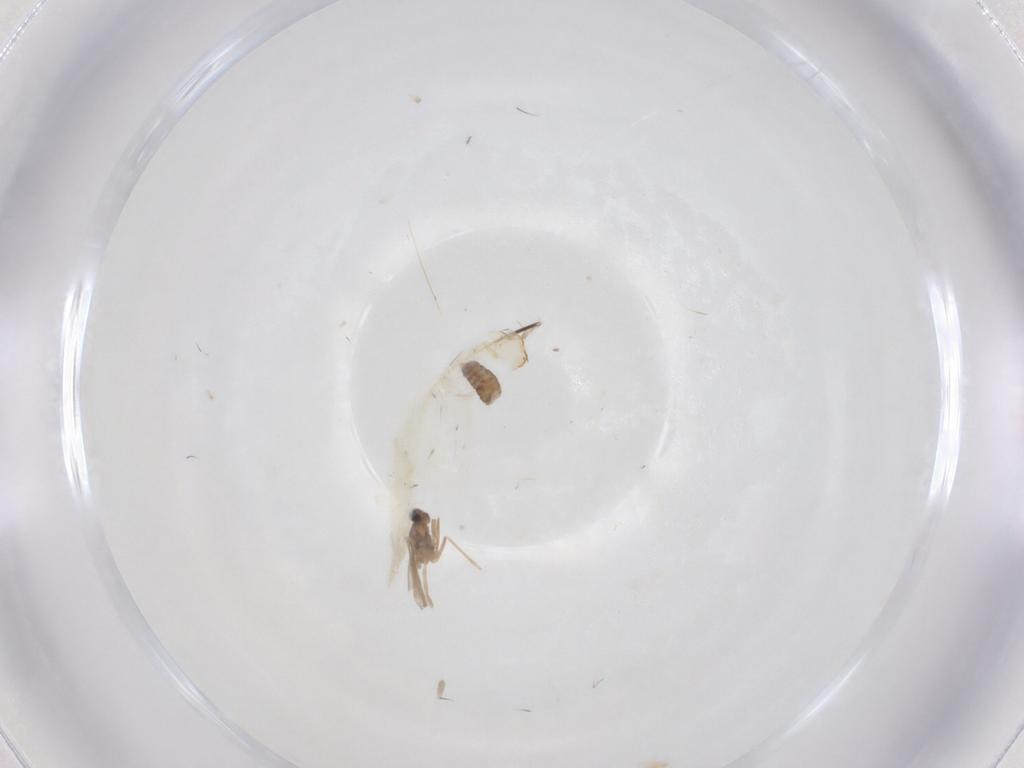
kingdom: Animalia
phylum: Arthropoda
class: Insecta
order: Diptera
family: Cecidomyiidae
